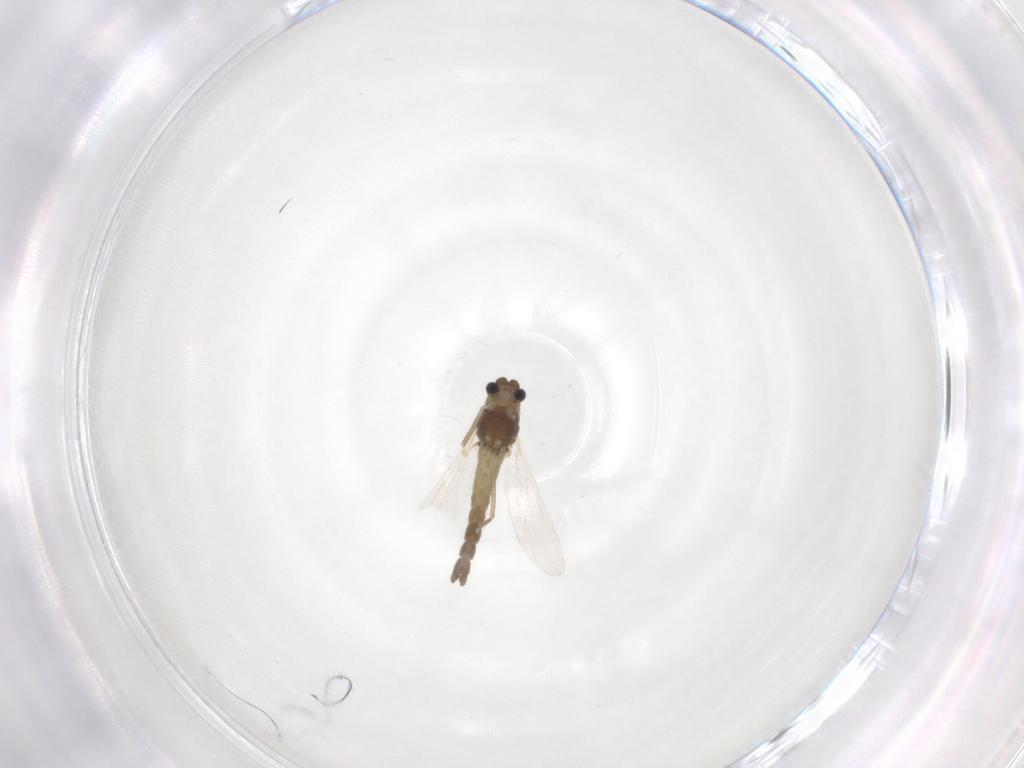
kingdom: Animalia
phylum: Arthropoda
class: Insecta
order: Diptera
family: Chironomidae
